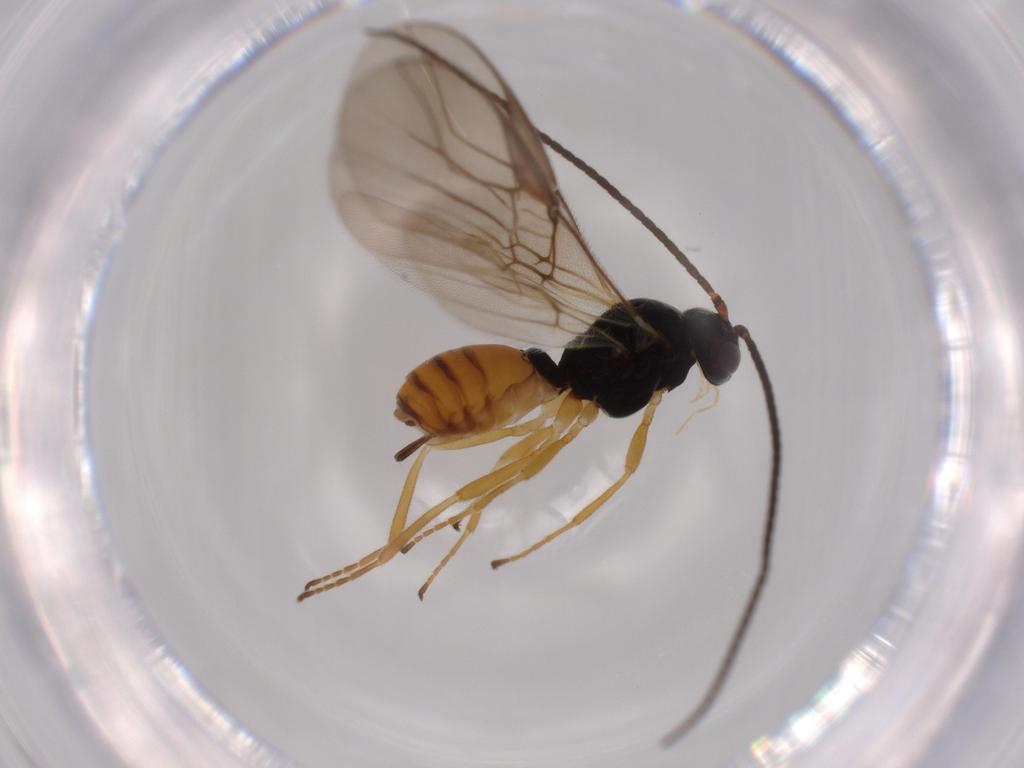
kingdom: Animalia
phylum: Arthropoda
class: Insecta
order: Hymenoptera
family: Braconidae
